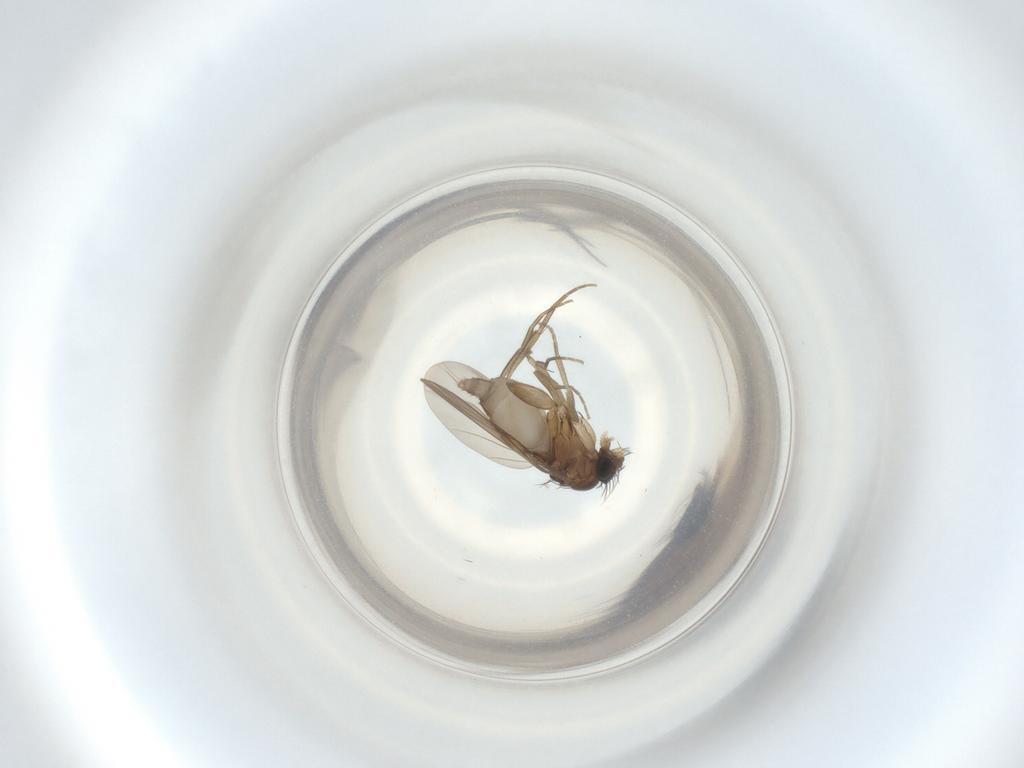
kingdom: Animalia
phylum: Arthropoda
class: Insecta
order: Diptera
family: Phoridae
